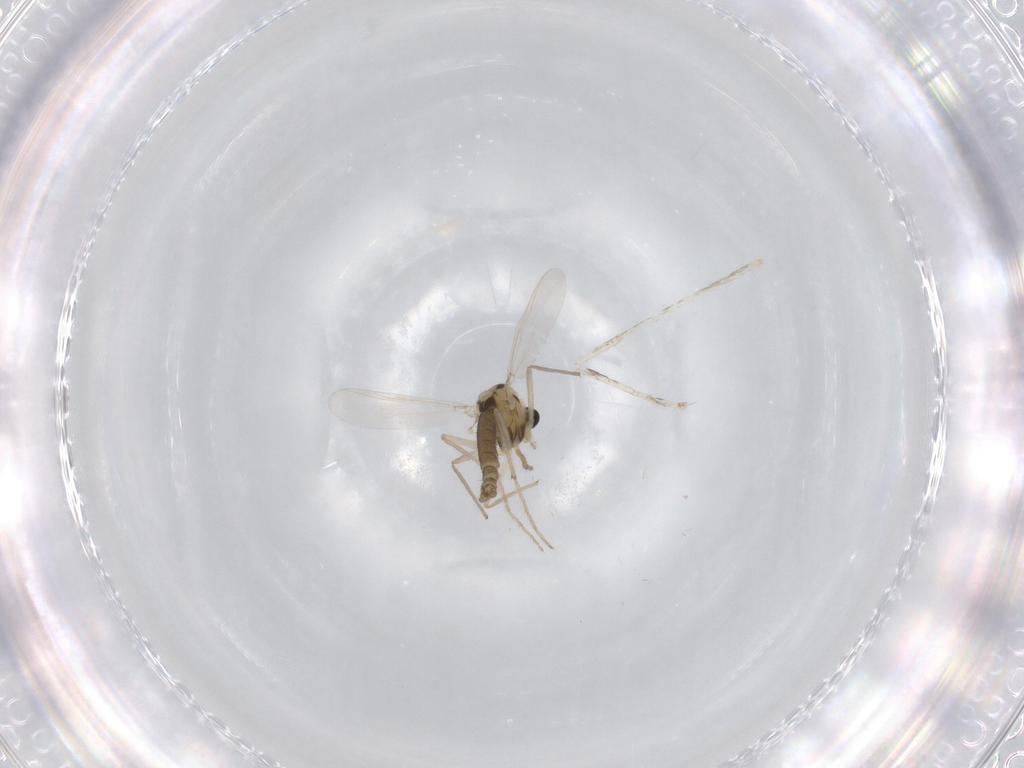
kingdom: Animalia
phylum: Arthropoda
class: Insecta
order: Diptera
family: Chironomidae
